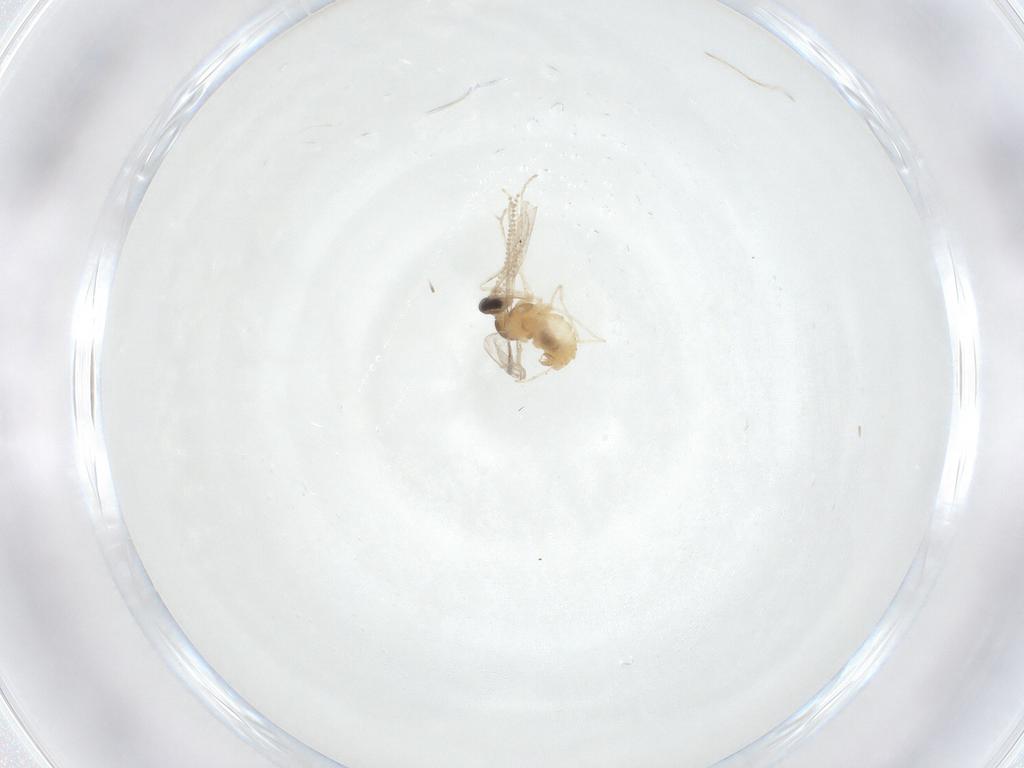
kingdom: Animalia
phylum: Arthropoda
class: Insecta
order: Diptera
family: Cecidomyiidae
